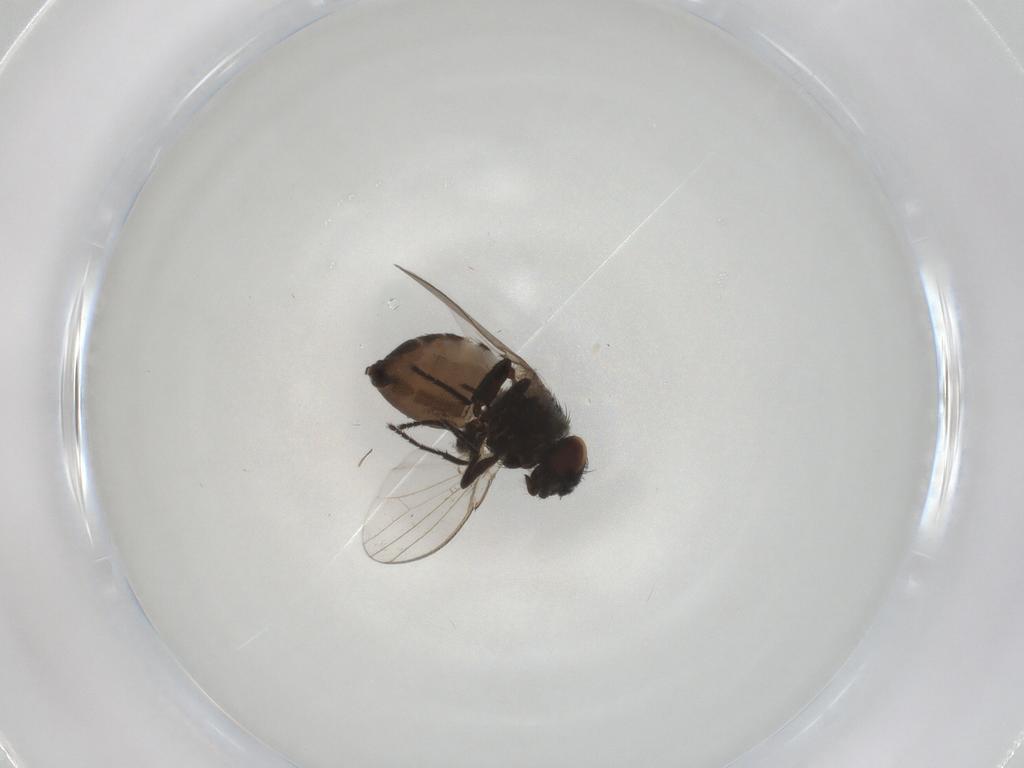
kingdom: Animalia
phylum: Arthropoda
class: Insecta
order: Diptera
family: Milichiidae
